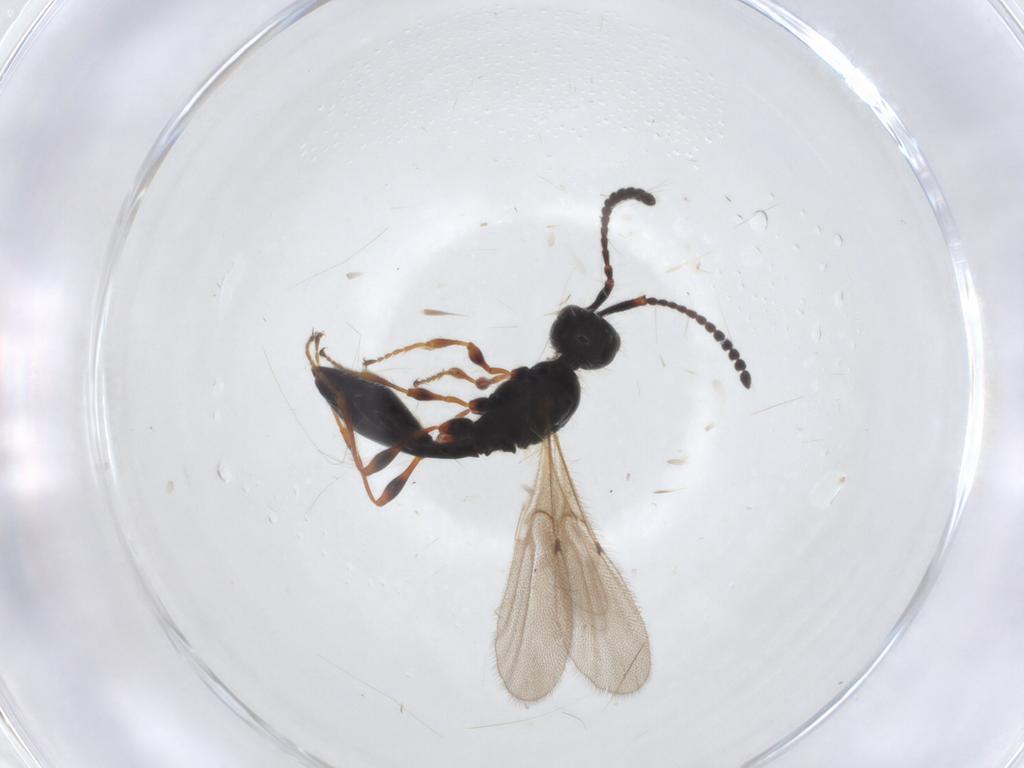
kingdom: Animalia
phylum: Arthropoda
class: Insecta
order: Hymenoptera
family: Diapriidae
